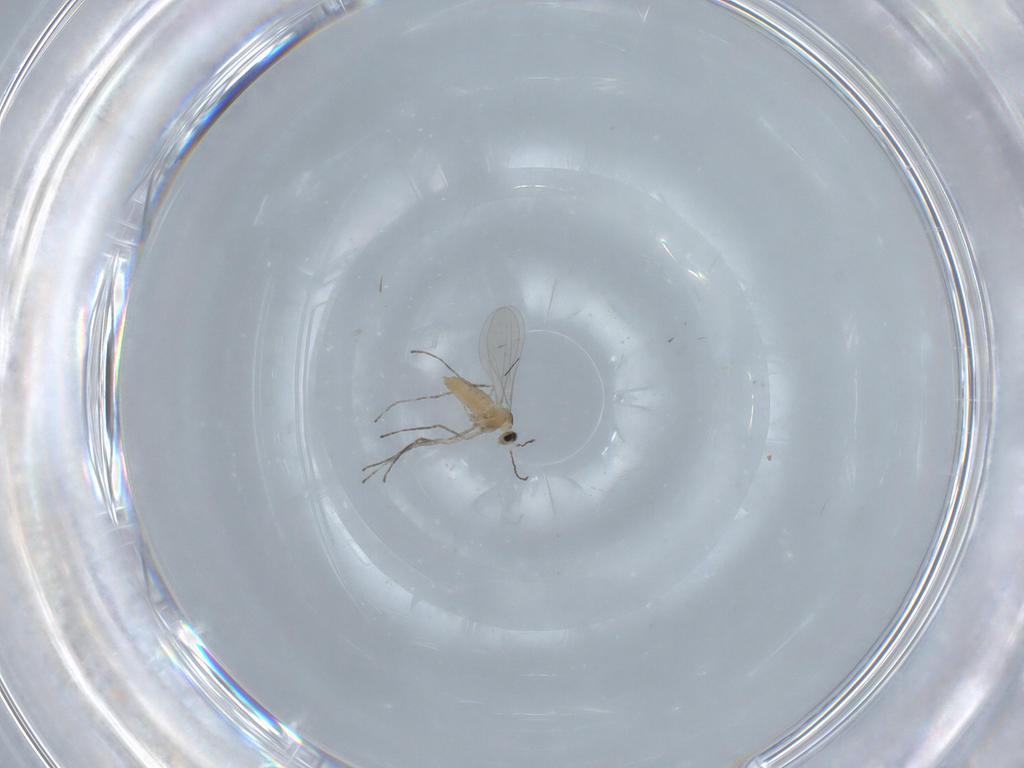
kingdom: Animalia
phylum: Arthropoda
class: Insecta
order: Diptera
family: Cecidomyiidae
